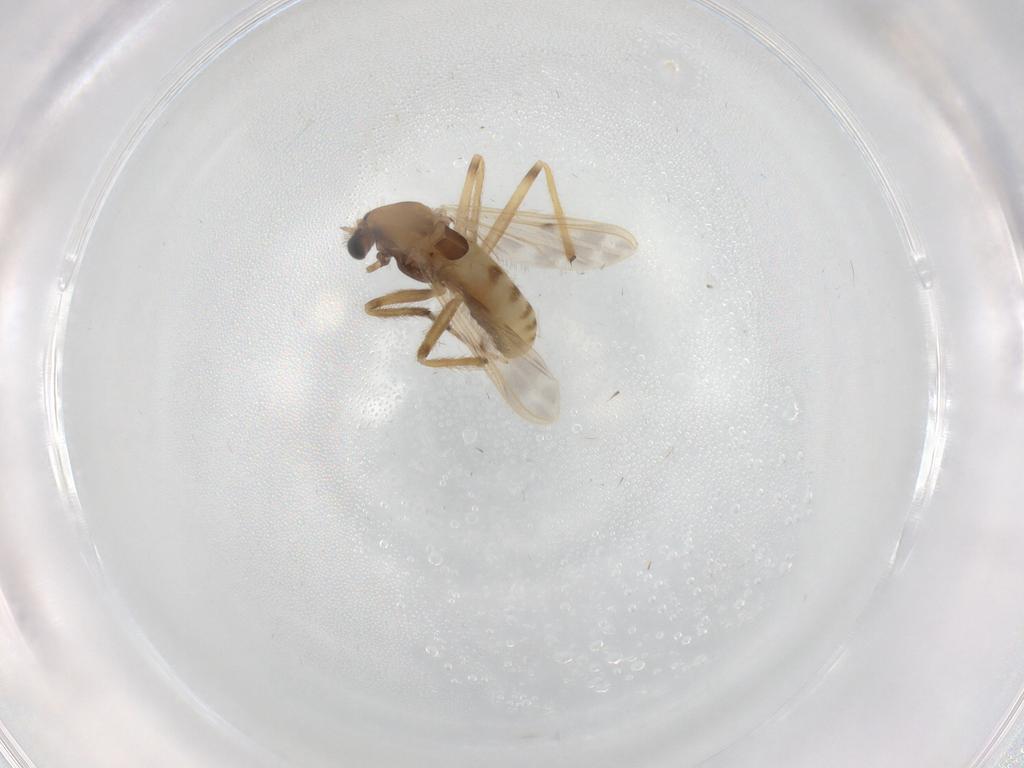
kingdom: Animalia
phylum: Arthropoda
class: Insecta
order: Diptera
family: Chironomidae
